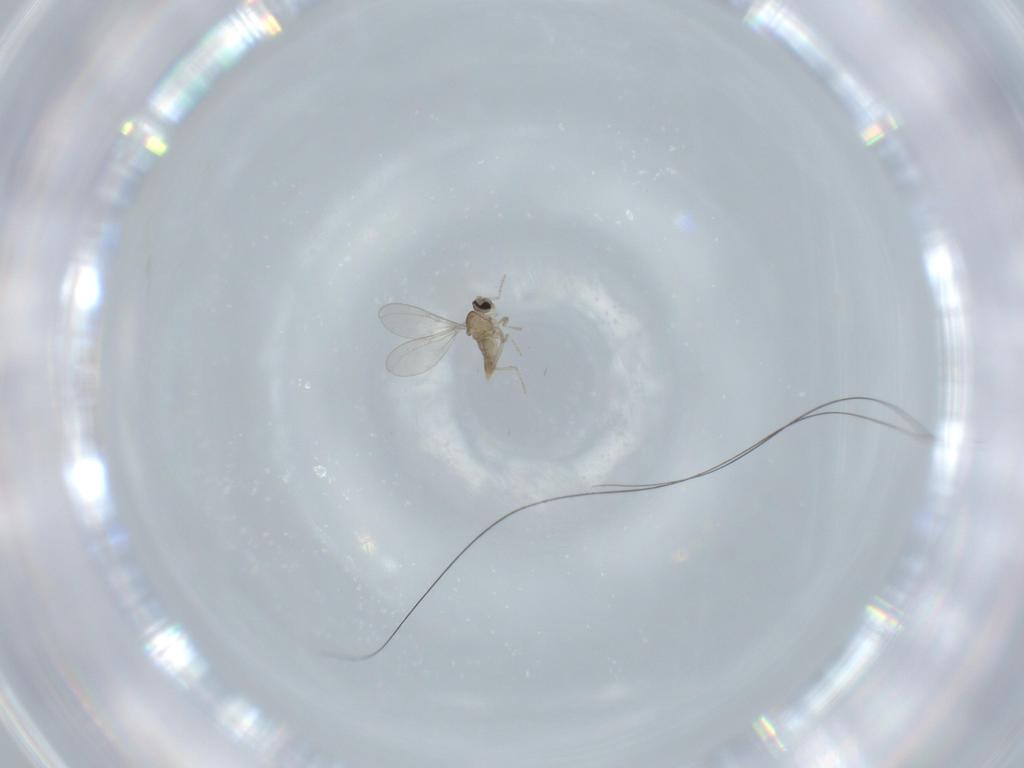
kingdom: Animalia
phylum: Arthropoda
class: Insecta
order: Diptera
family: Cecidomyiidae
